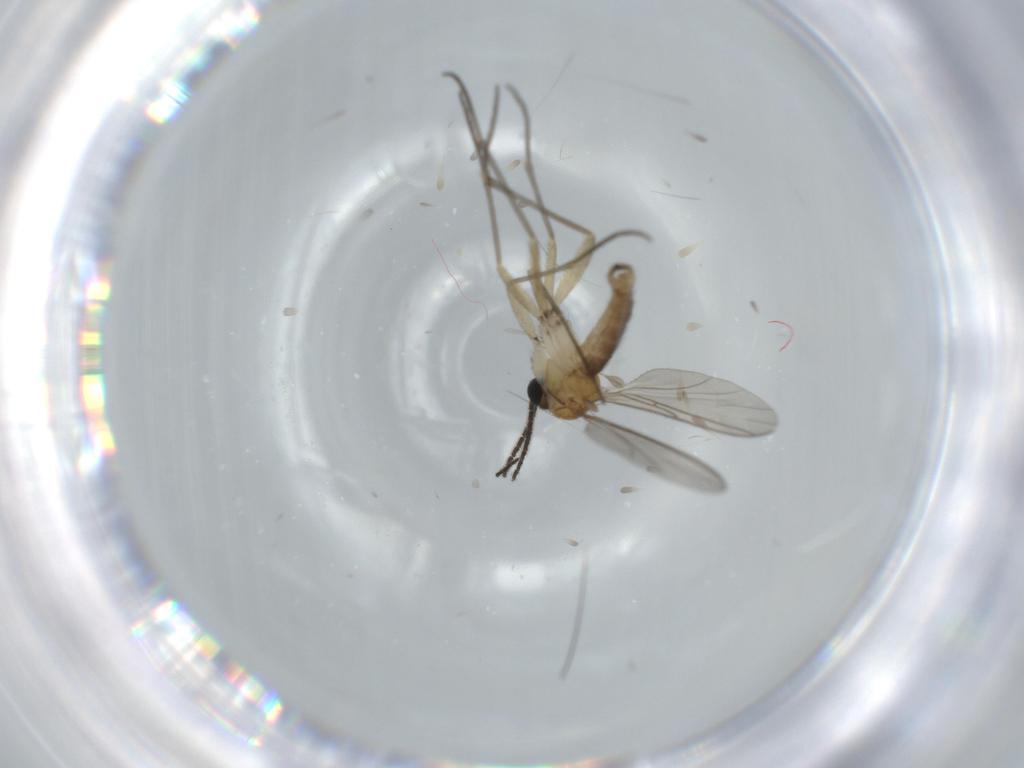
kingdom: Animalia
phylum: Arthropoda
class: Insecta
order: Diptera
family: Sciaridae
